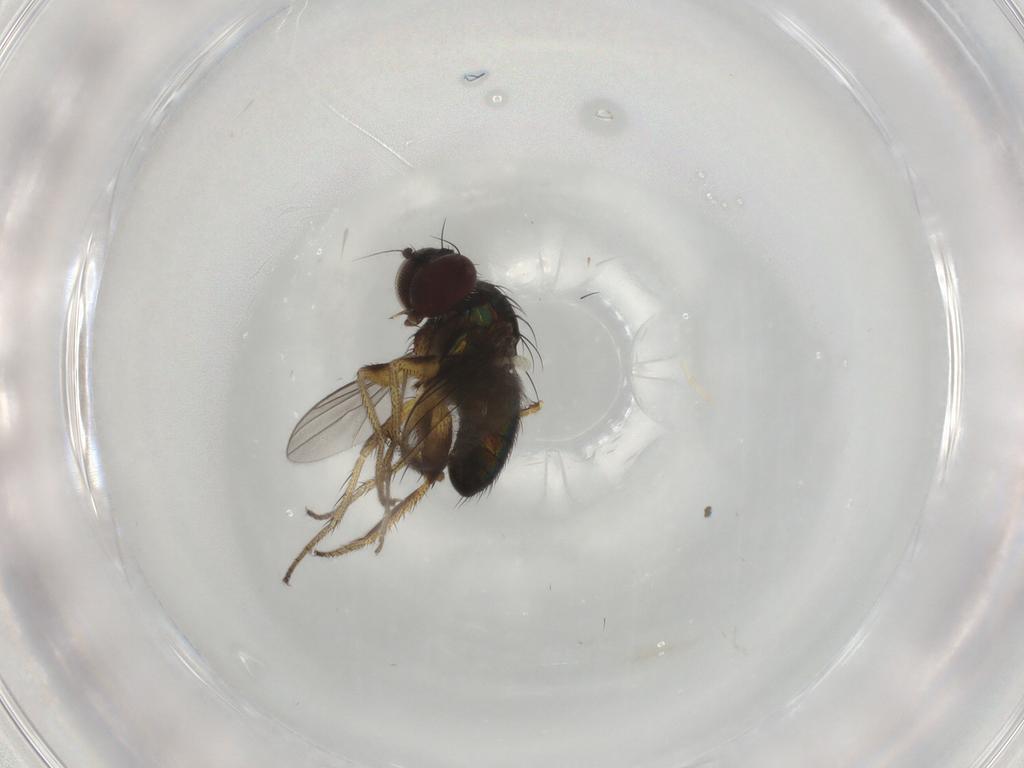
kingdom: Animalia
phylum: Arthropoda
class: Insecta
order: Diptera
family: Dolichopodidae
